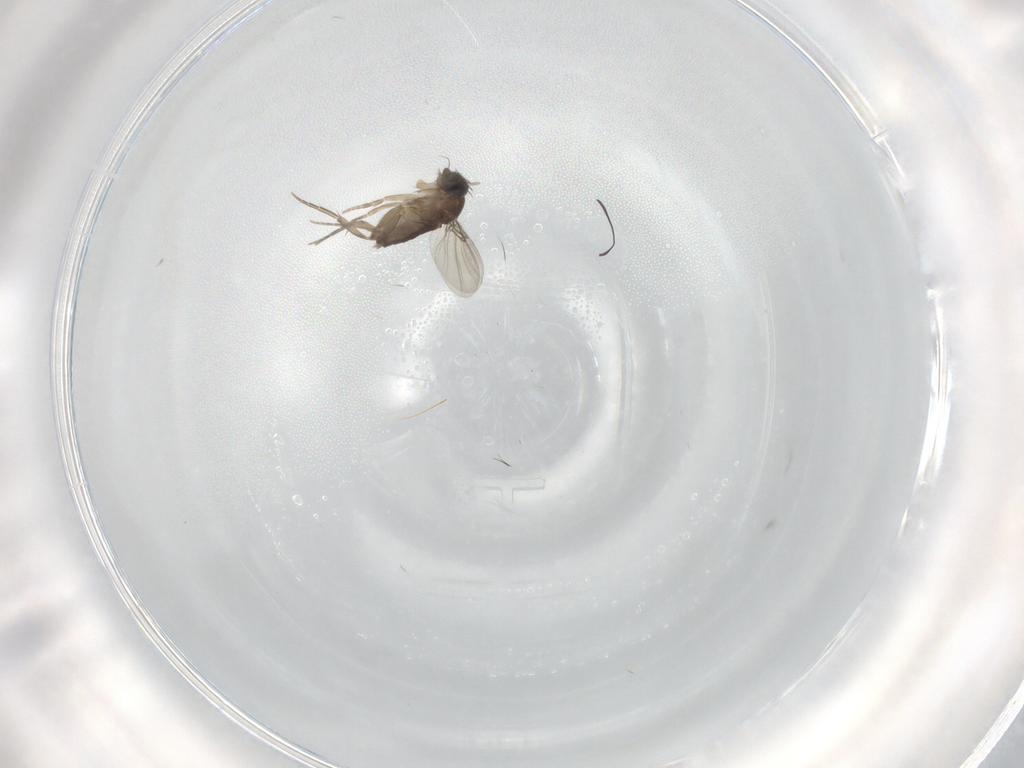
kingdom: Animalia
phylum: Arthropoda
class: Insecta
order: Diptera
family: Phoridae
